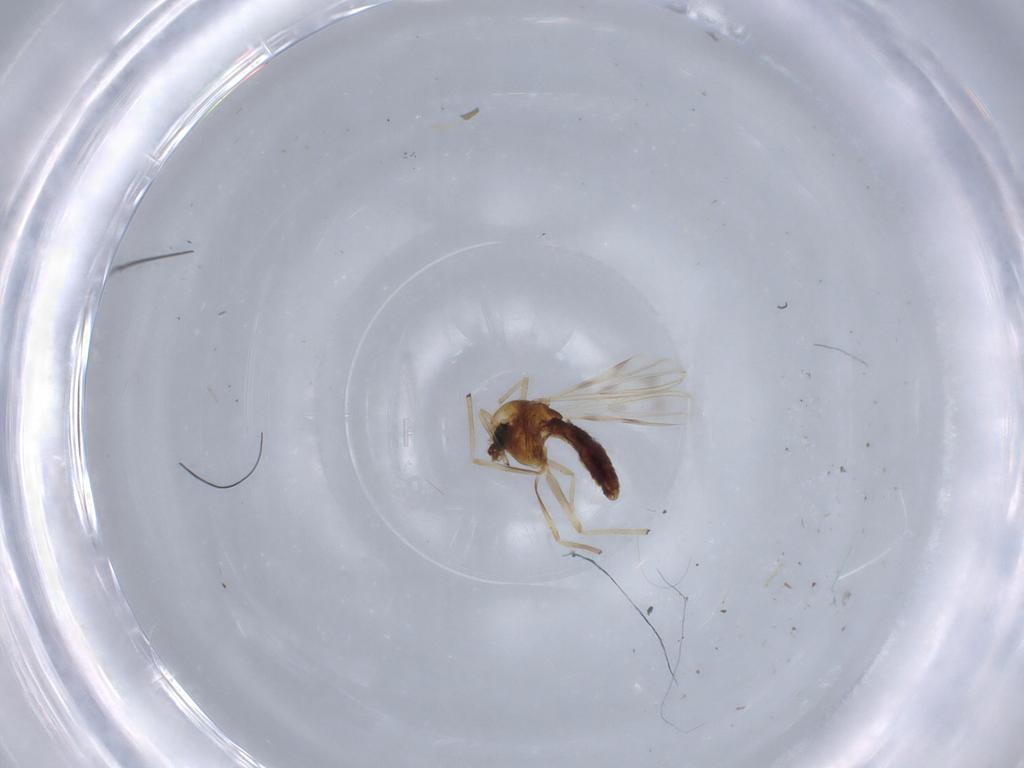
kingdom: Animalia
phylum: Arthropoda
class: Insecta
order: Diptera
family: Chironomidae
